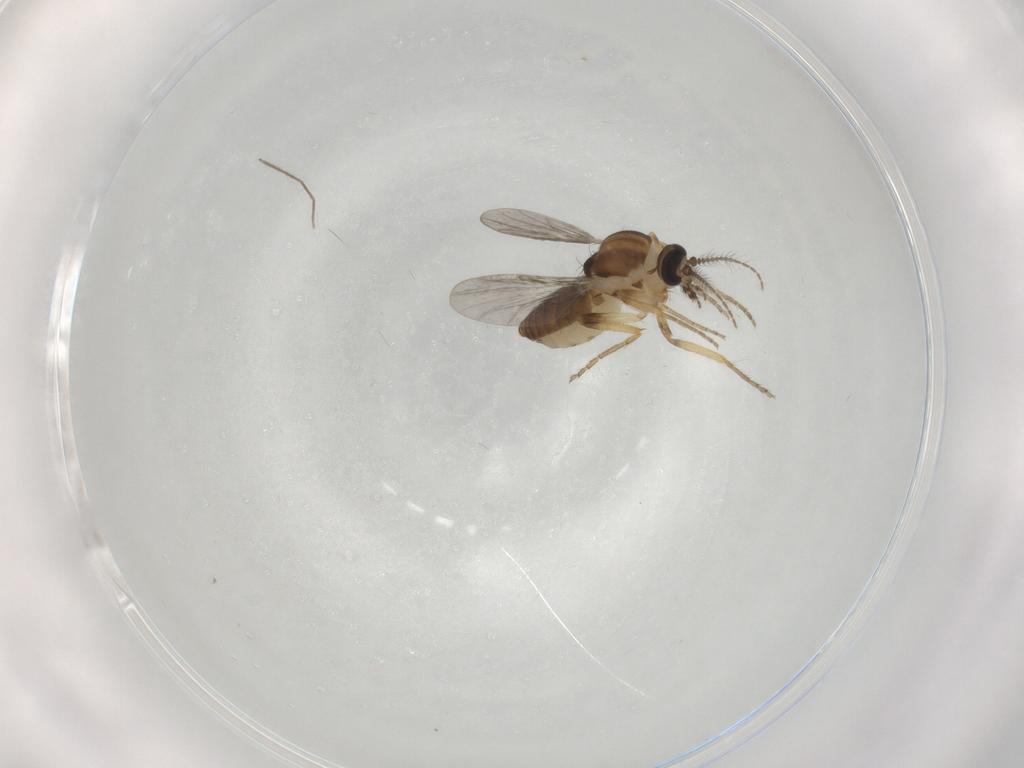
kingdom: Animalia
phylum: Arthropoda
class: Insecta
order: Diptera
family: Ceratopogonidae
